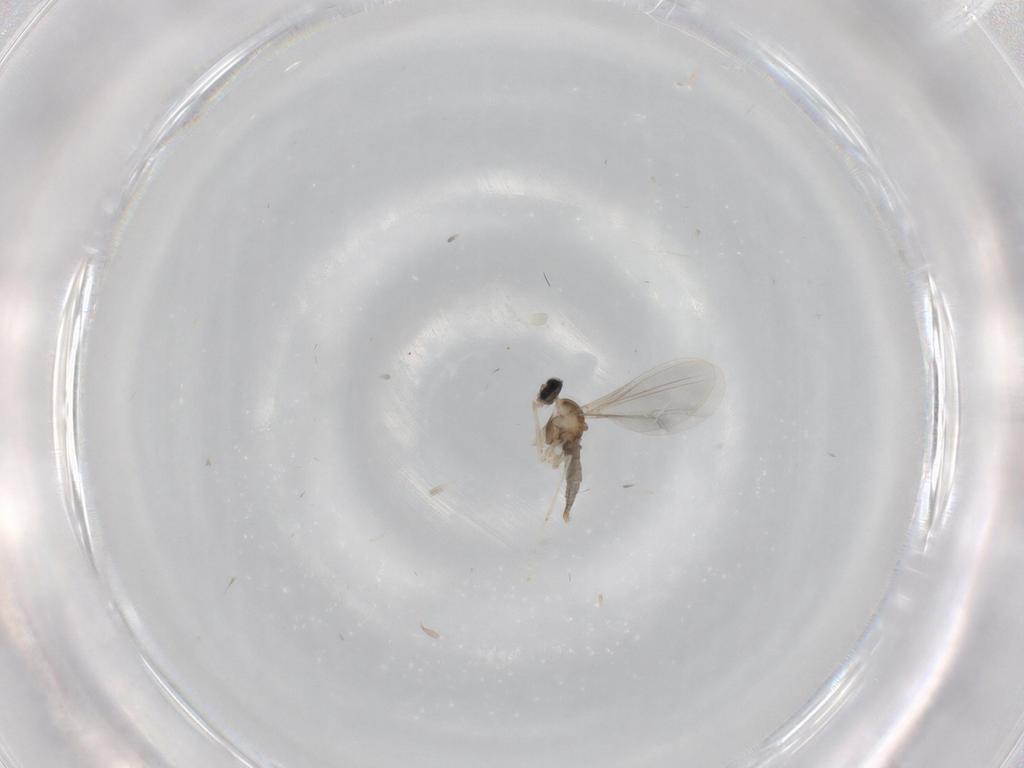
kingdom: Animalia
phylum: Arthropoda
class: Insecta
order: Diptera
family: Cecidomyiidae
